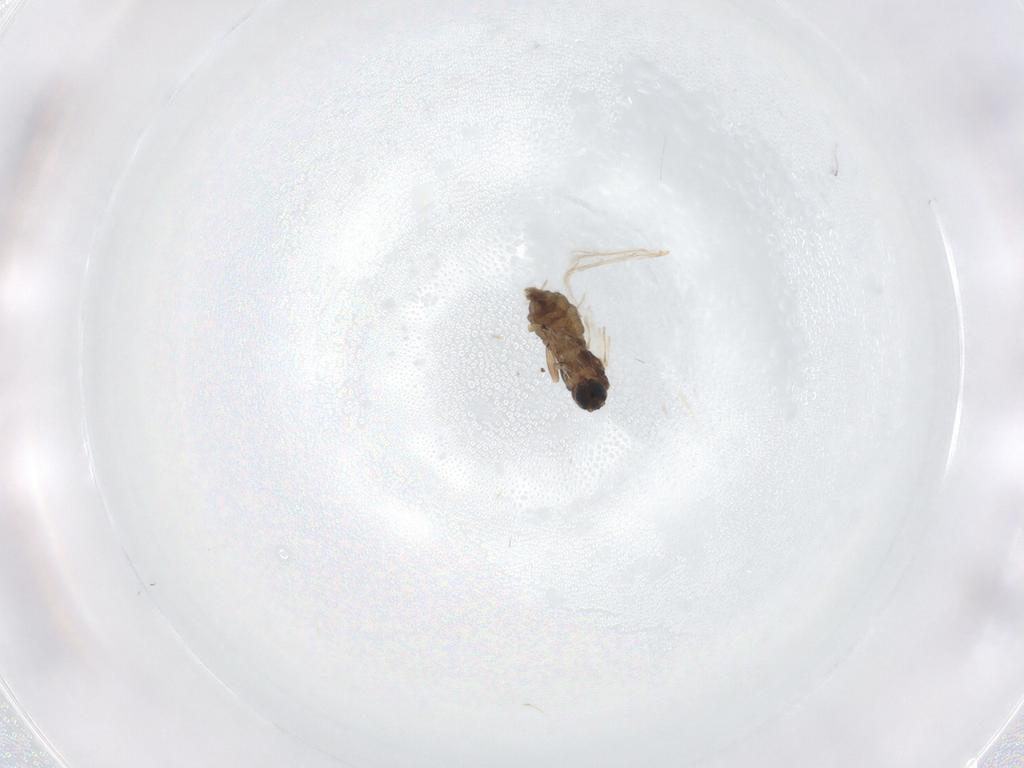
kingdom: Animalia
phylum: Arthropoda
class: Insecta
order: Diptera
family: Sciaridae
